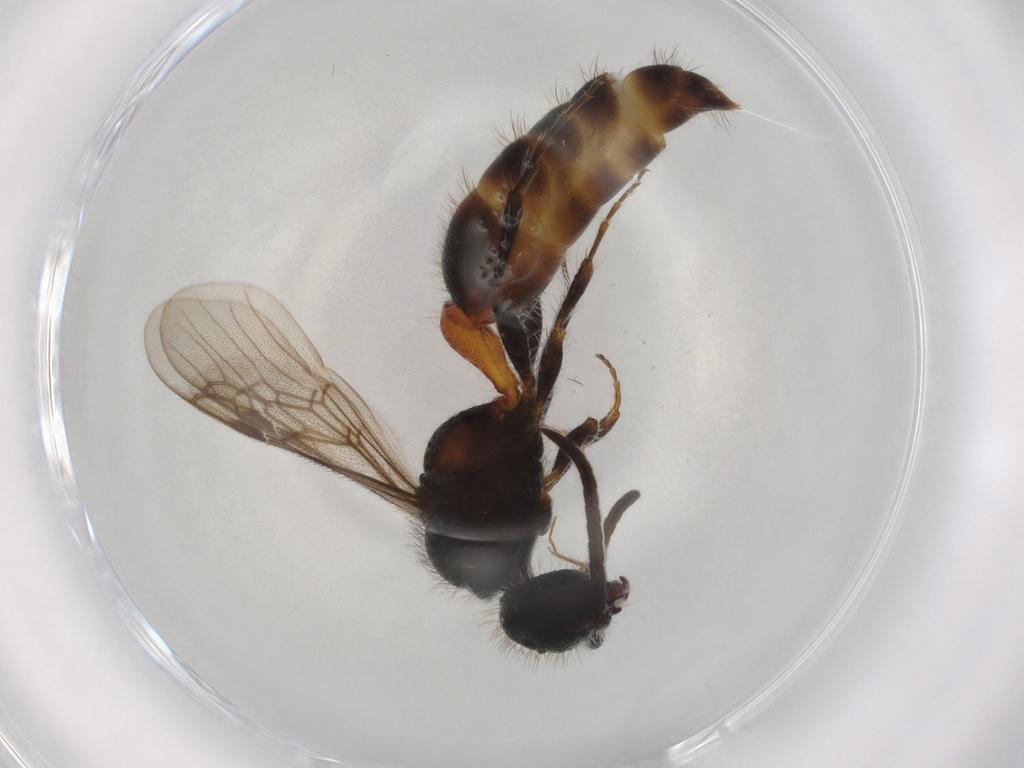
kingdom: Animalia
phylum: Arthropoda
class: Insecta
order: Hymenoptera
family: Mutillidae
